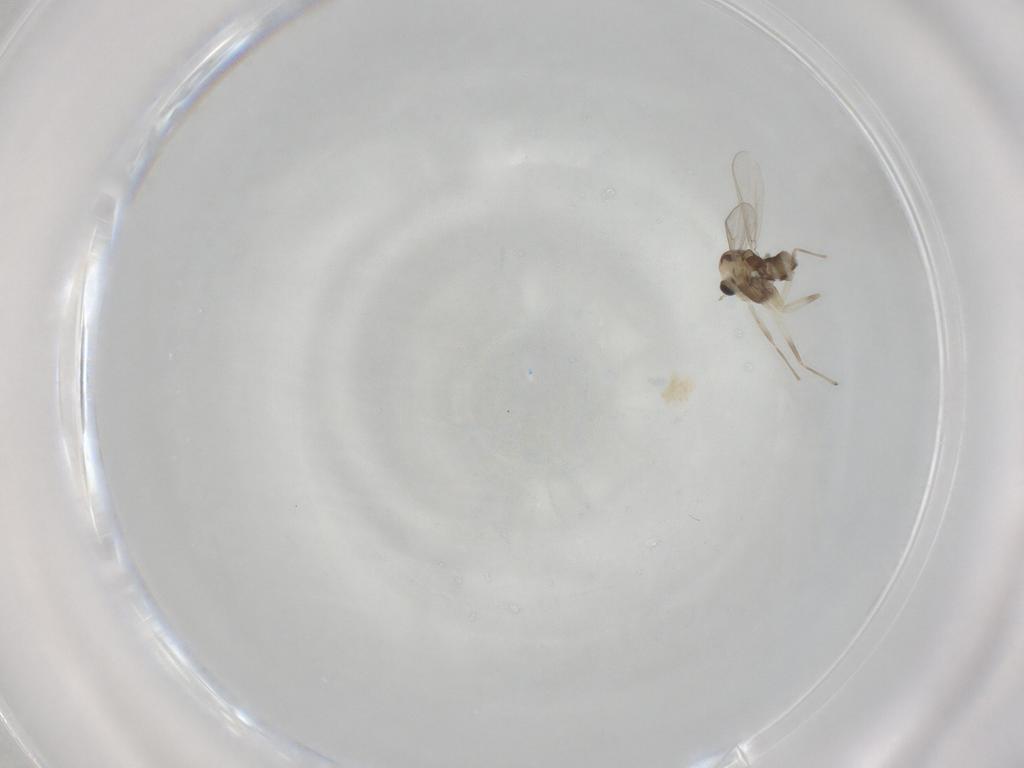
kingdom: Animalia
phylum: Arthropoda
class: Insecta
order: Diptera
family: Chironomidae
